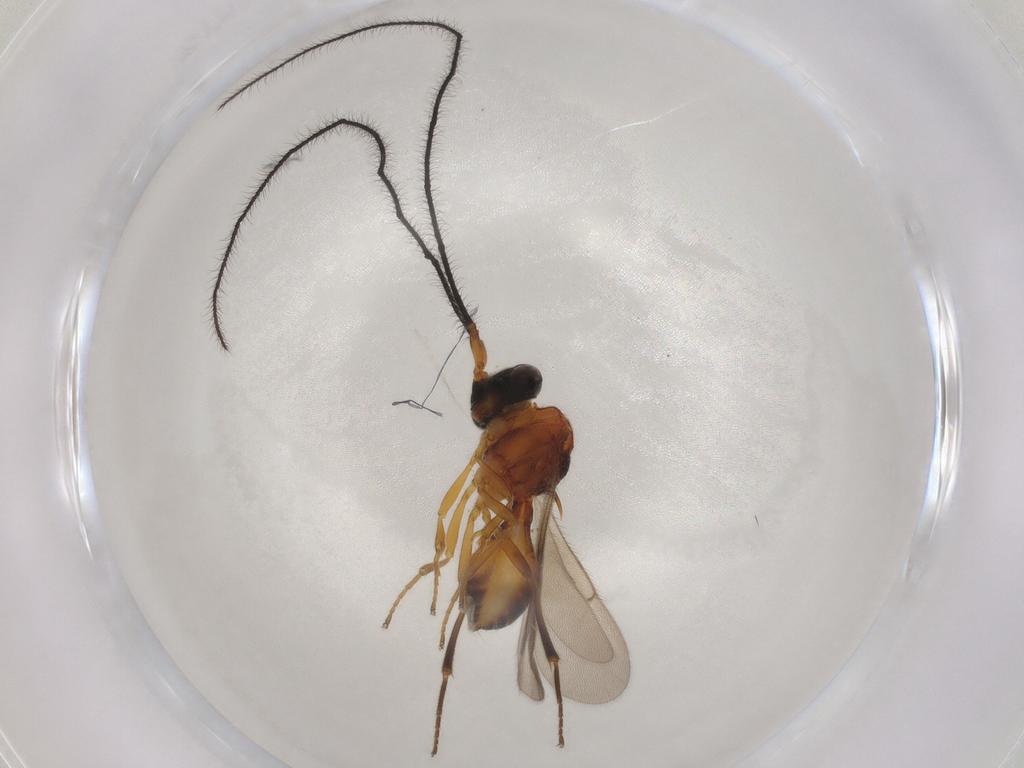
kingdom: Animalia
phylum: Arthropoda
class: Insecta
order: Hymenoptera
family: Scelionidae
